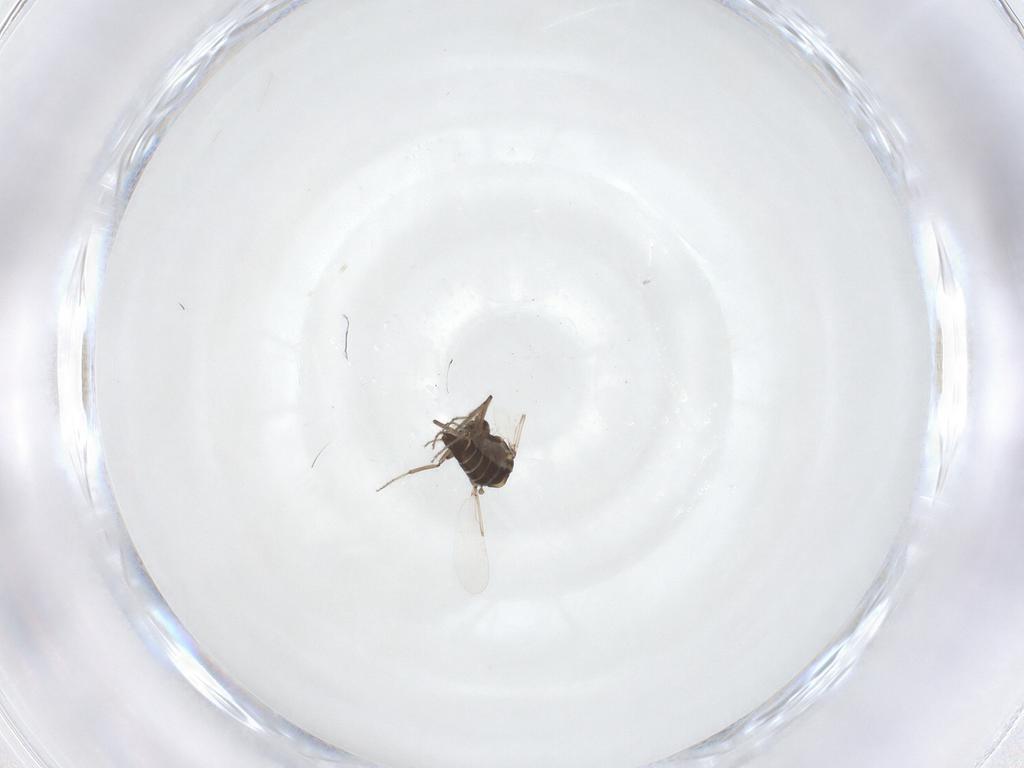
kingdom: Animalia
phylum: Arthropoda
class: Insecta
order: Diptera
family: Ceratopogonidae
